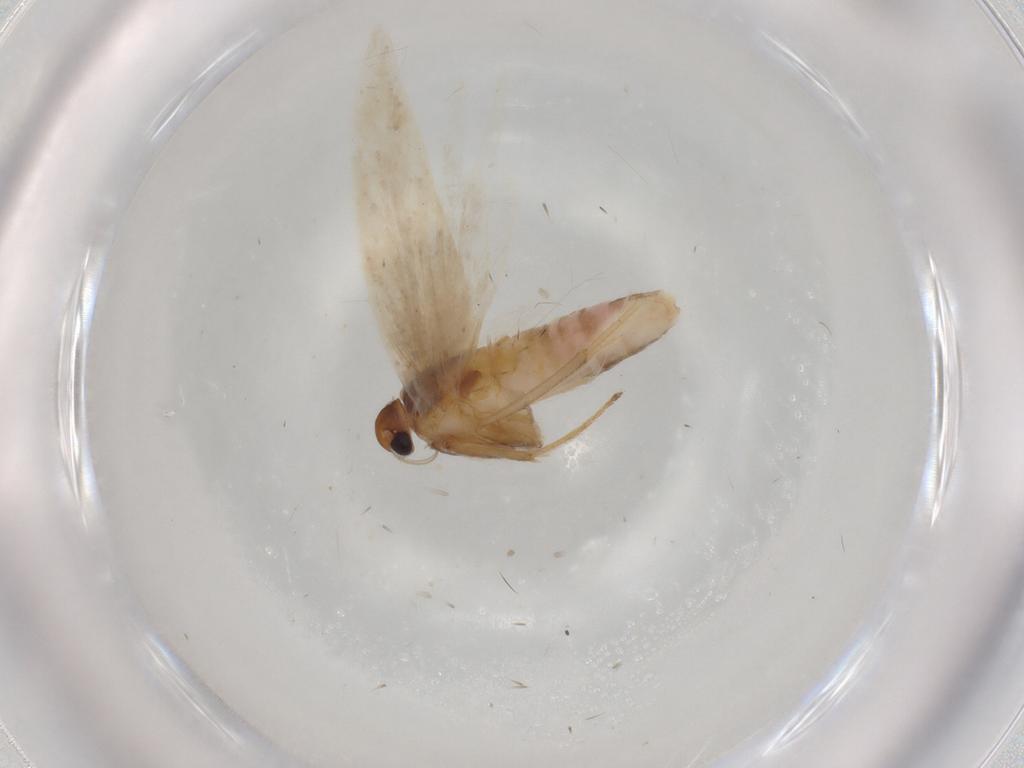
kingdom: Animalia
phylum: Arthropoda
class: Insecta
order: Lepidoptera
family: Gelechiidae
